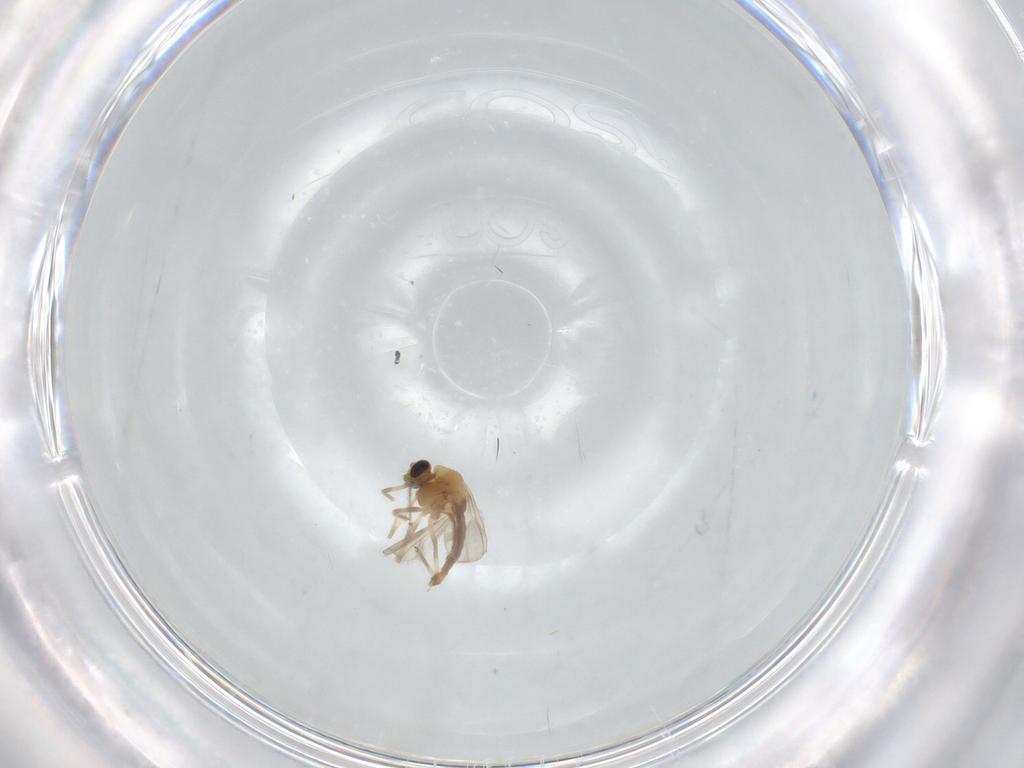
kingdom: Animalia
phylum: Arthropoda
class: Insecta
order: Diptera
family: Chironomidae
